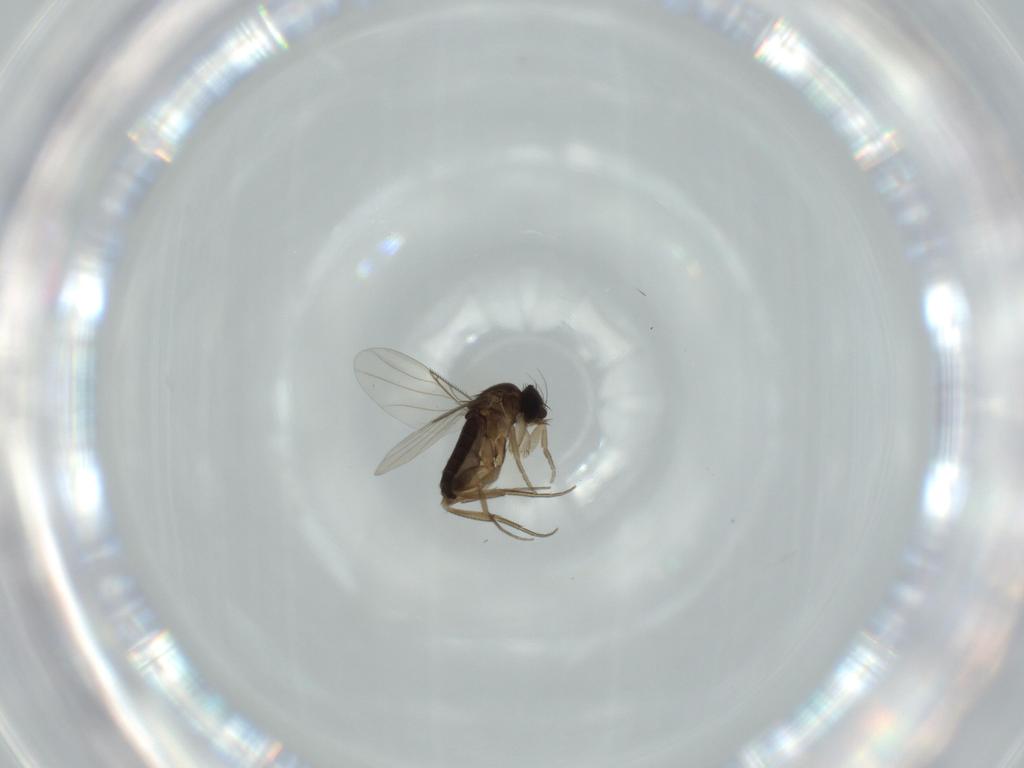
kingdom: Animalia
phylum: Arthropoda
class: Insecta
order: Diptera
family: Phoridae
